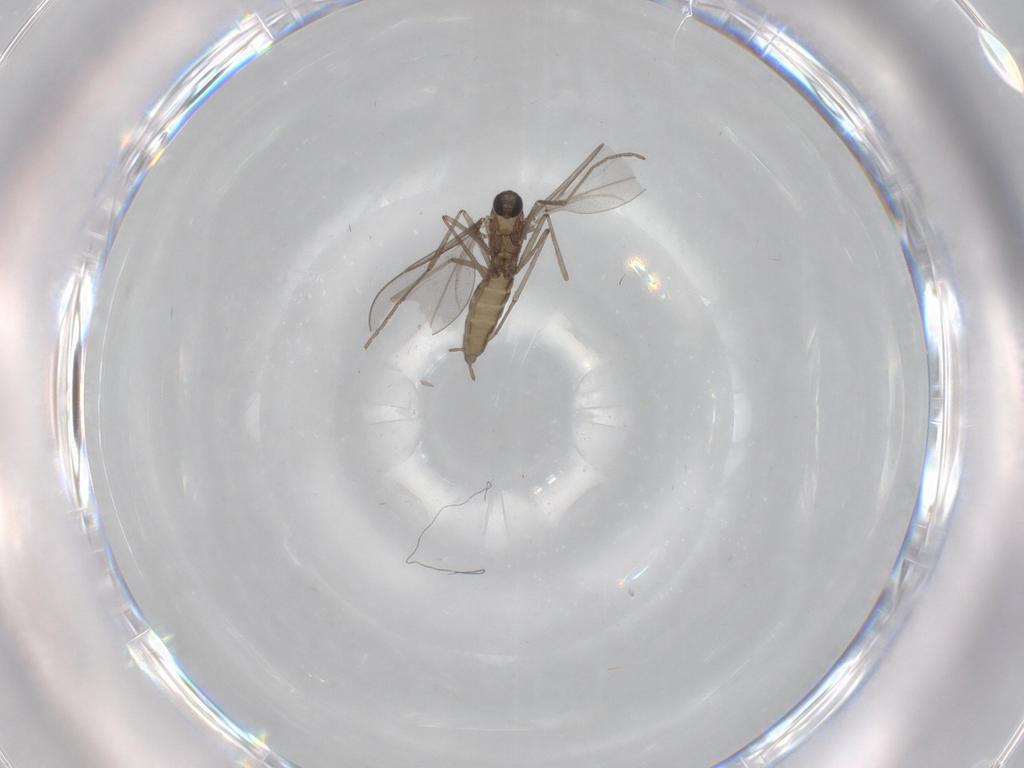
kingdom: Animalia
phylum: Arthropoda
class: Insecta
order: Diptera
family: Cecidomyiidae
